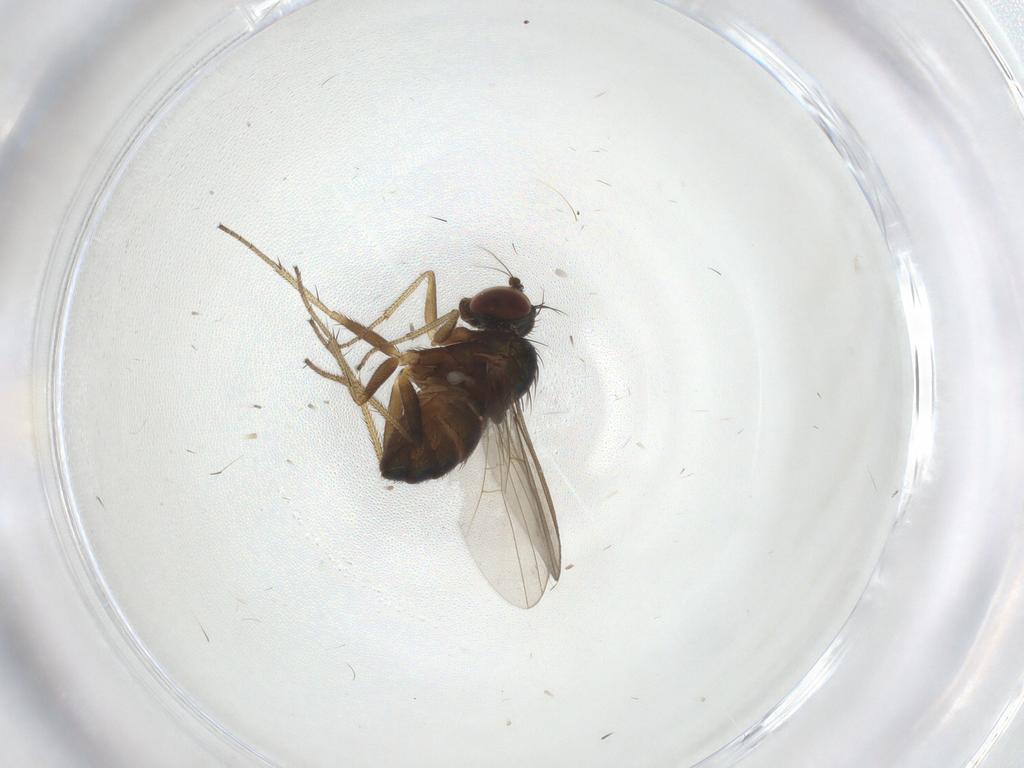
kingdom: Animalia
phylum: Arthropoda
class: Insecta
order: Diptera
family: Dolichopodidae
